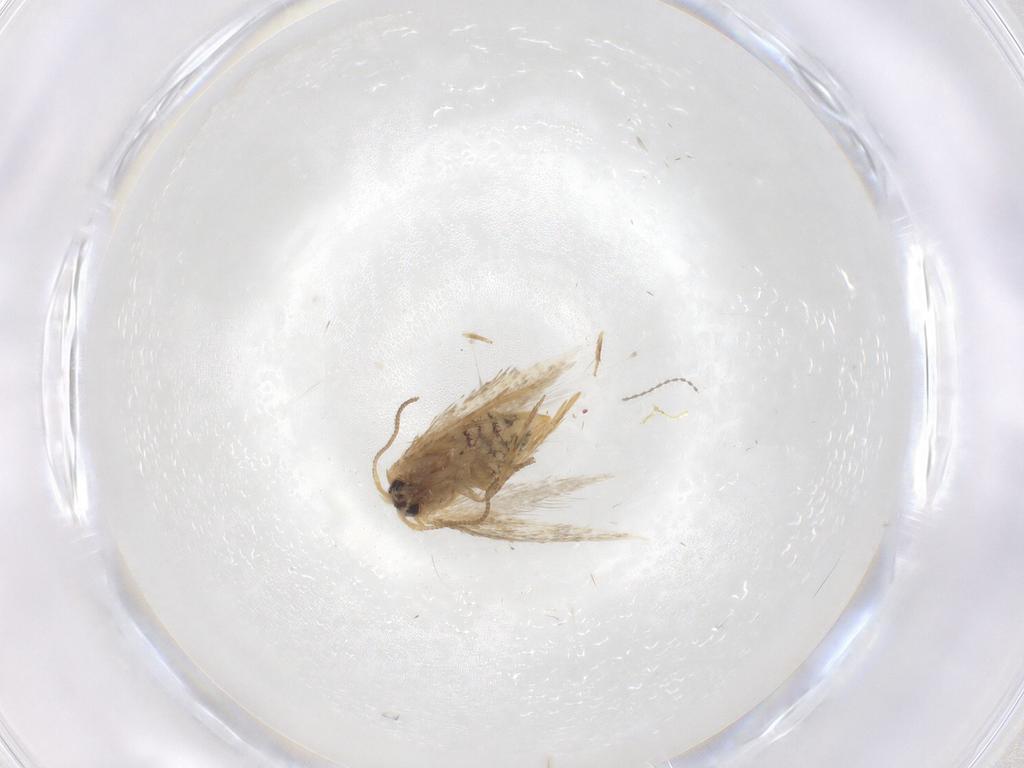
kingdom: Animalia
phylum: Arthropoda
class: Insecta
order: Lepidoptera
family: Nepticulidae
